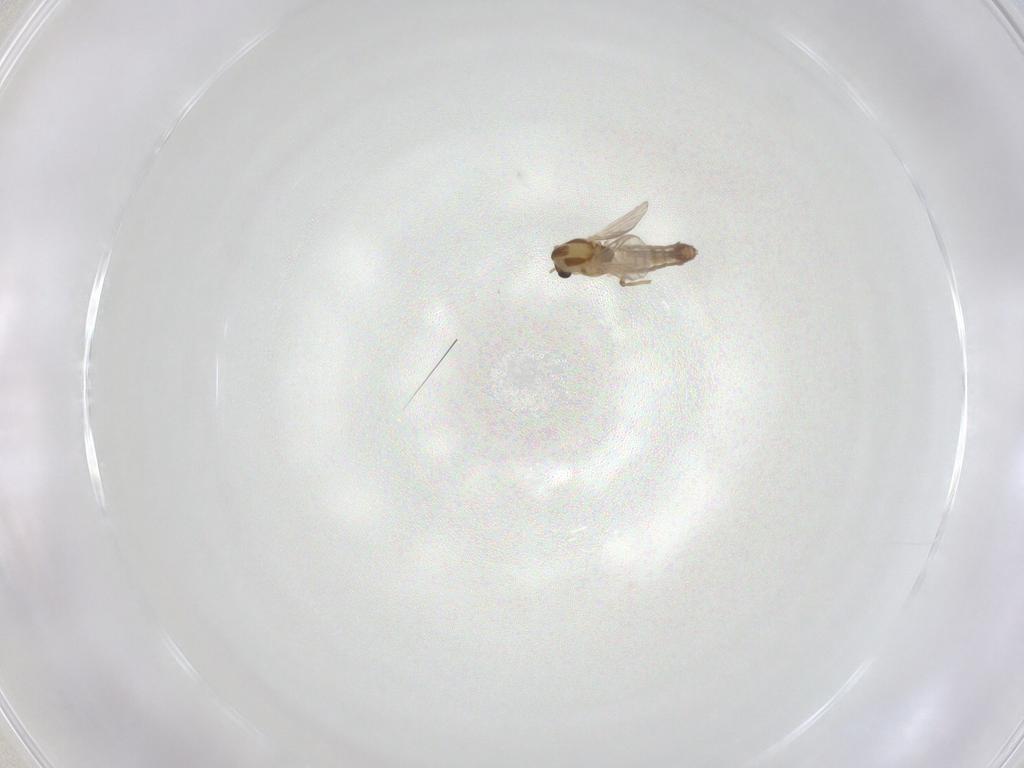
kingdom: Animalia
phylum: Arthropoda
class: Insecta
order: Diptera
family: Chironomidae
